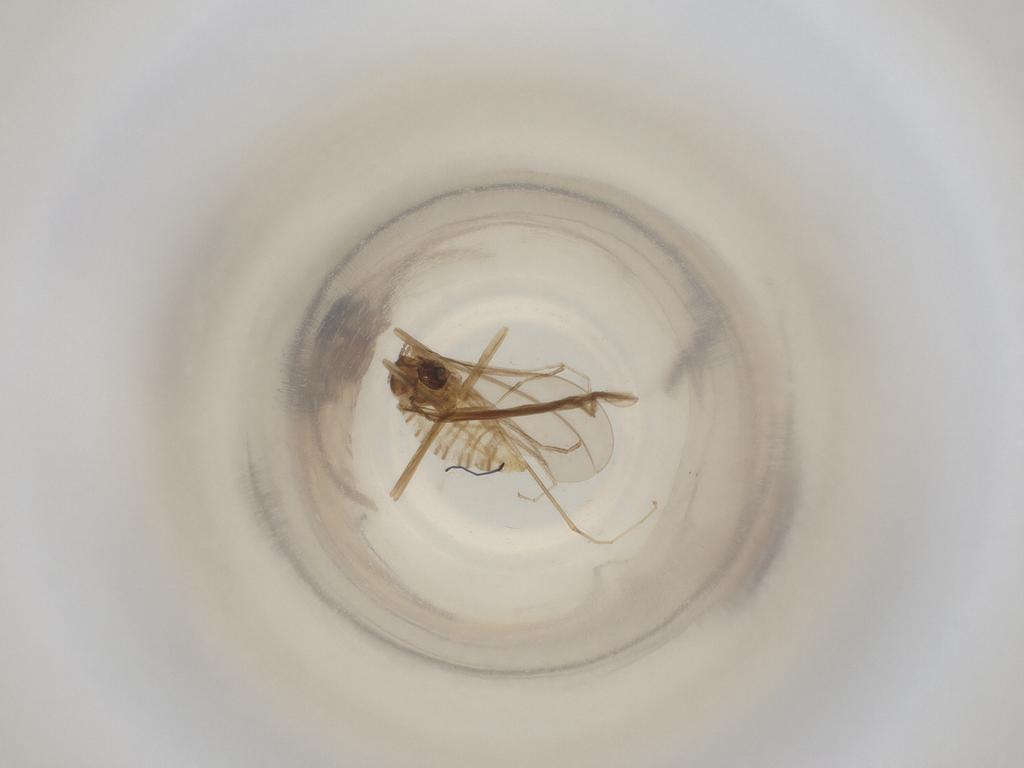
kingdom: Animalia
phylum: Arthropoda
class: Insecta
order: Diptera
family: Cecidomyiidae
